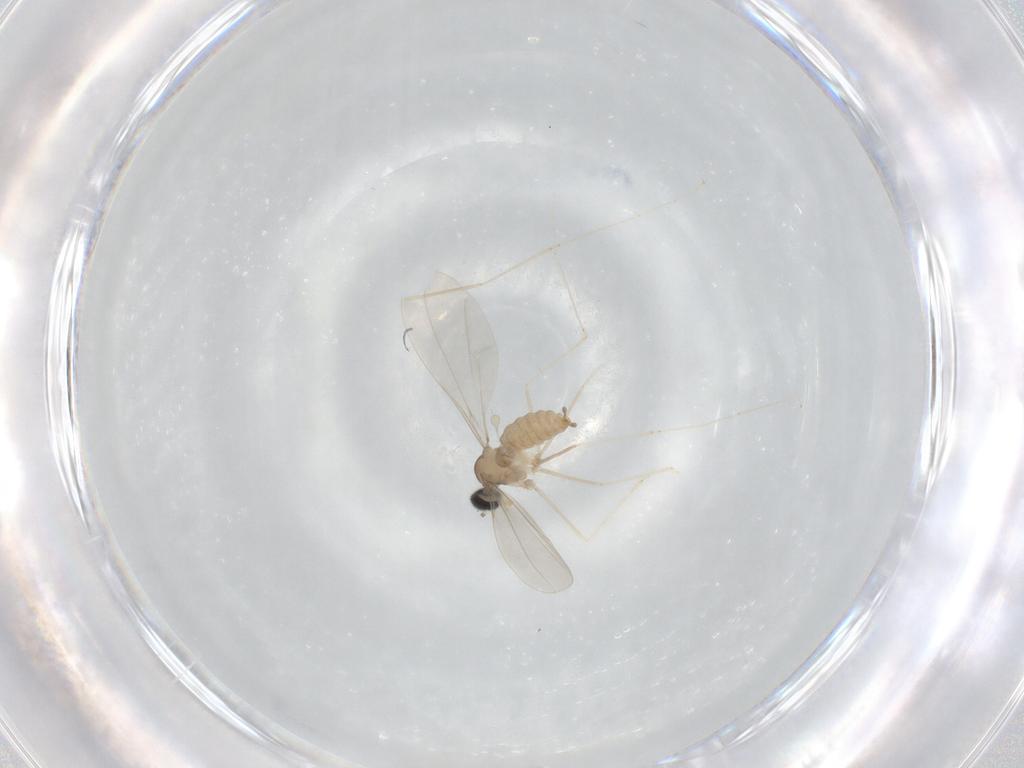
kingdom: Animalia
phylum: Arthropoda
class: Insecta
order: Diptera
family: Cecidomyiidae
